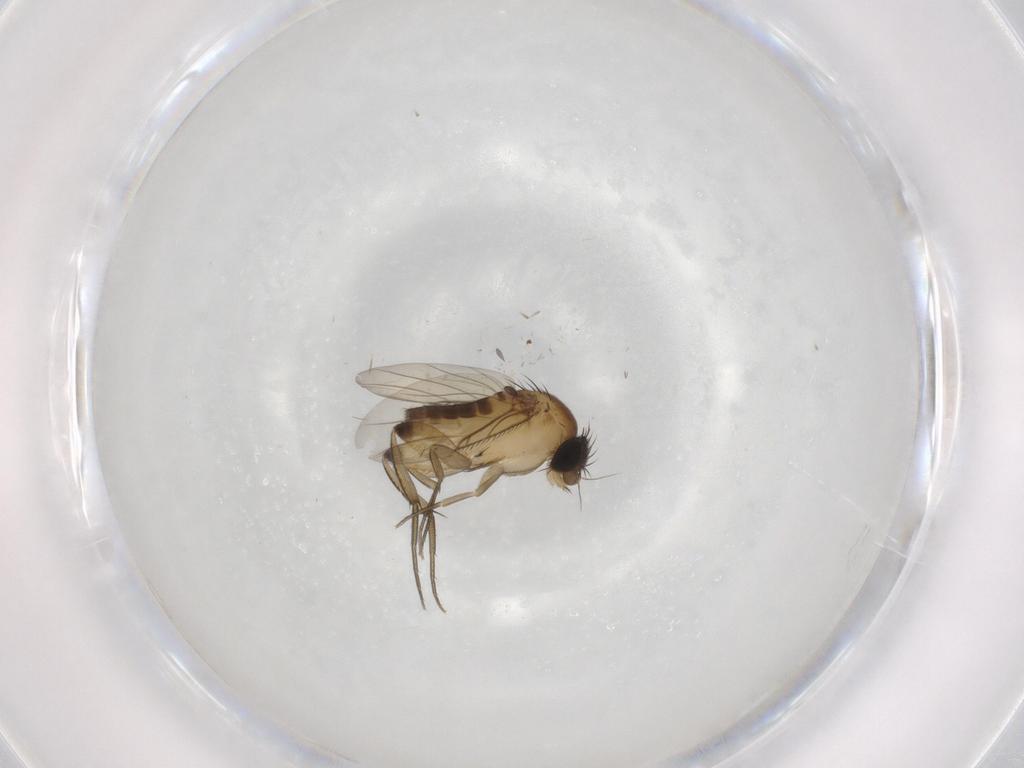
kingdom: Animalia
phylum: Arthropoda
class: Insecta
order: Diptera
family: Phoridae
